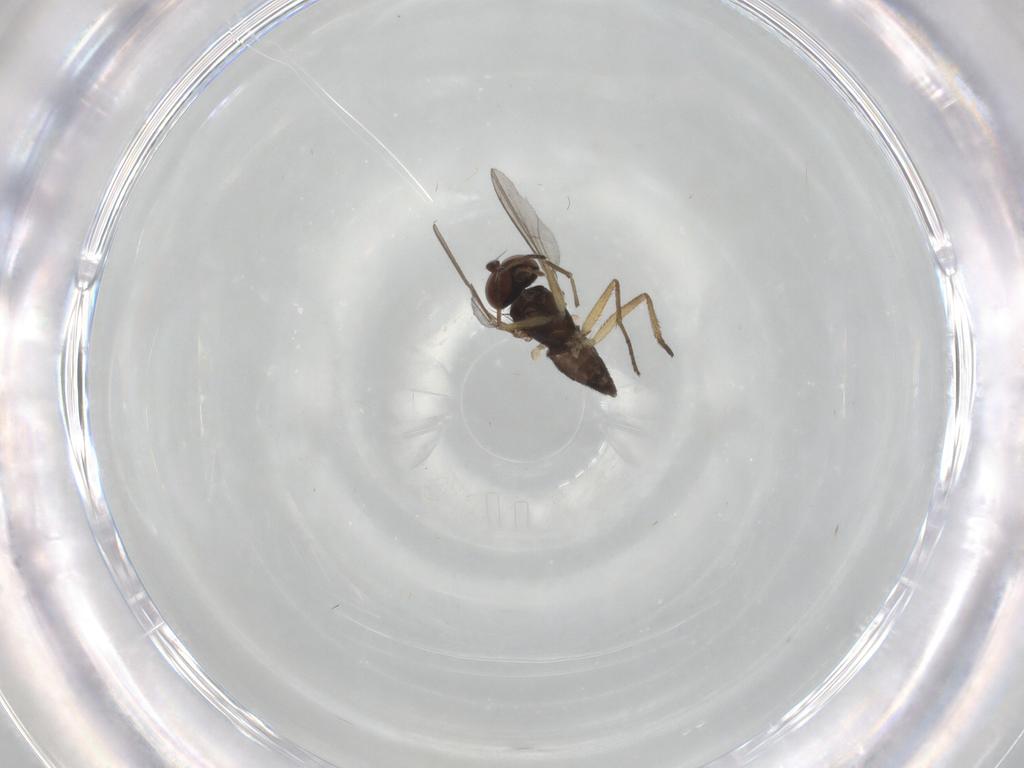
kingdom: Animalia
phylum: Arthropoda
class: Insecta
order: Diptera
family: Dolichopodidae
